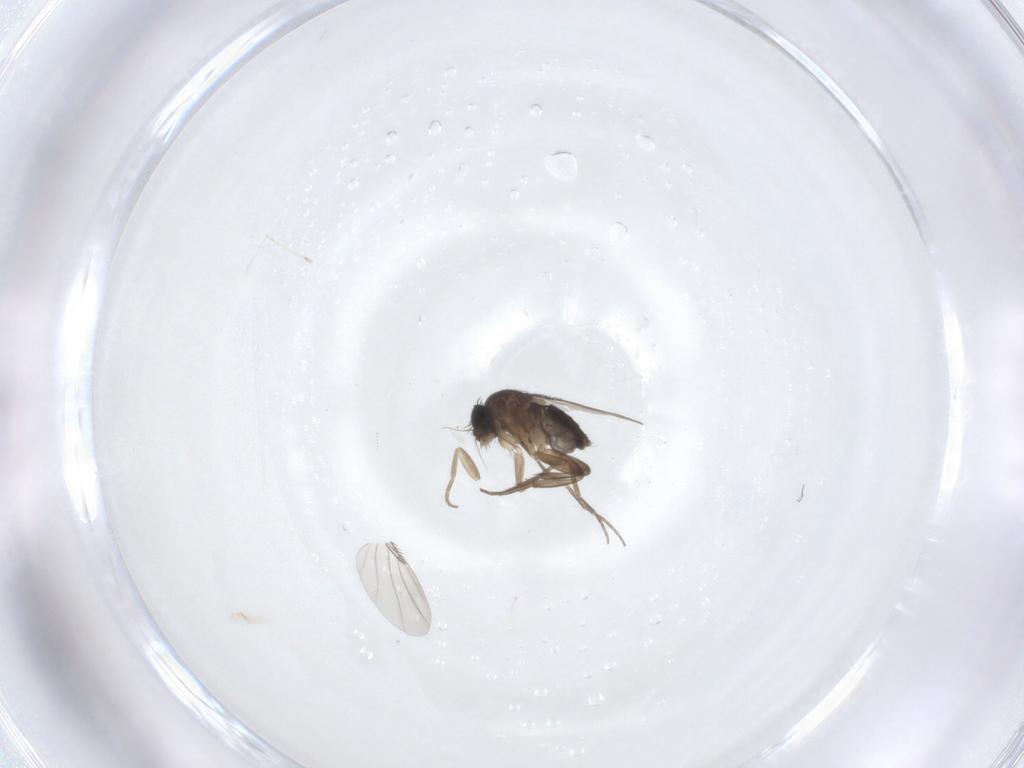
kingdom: Animalia
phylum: Arthropoda
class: Insecta
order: Diptera
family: Phoridae
